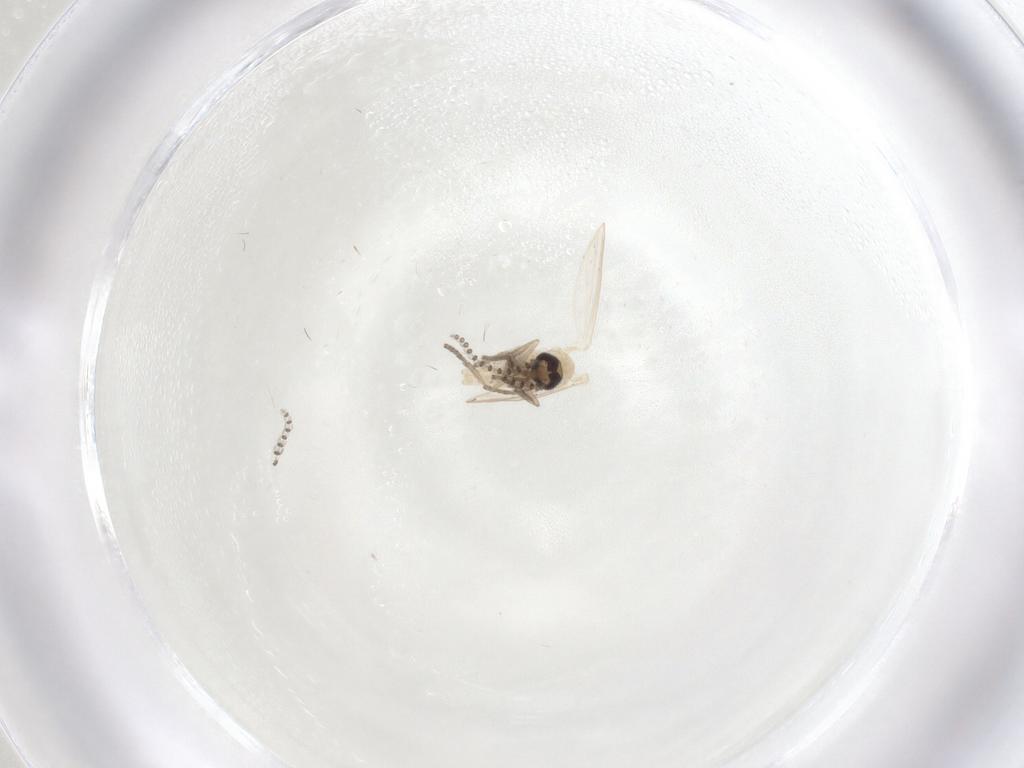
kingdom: Animalia
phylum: Arthropoda
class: Insecta
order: Diptera
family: Psychodidae
